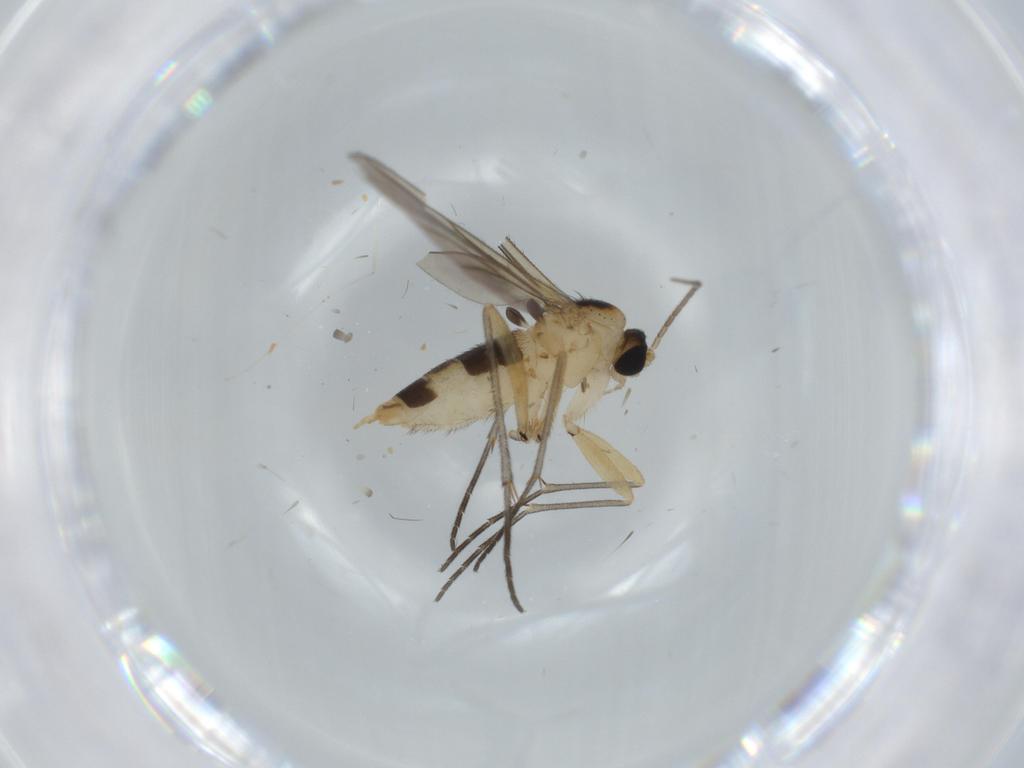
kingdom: Animalia
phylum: Arthropoda
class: Insecta
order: Diptera
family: Sciaridae
